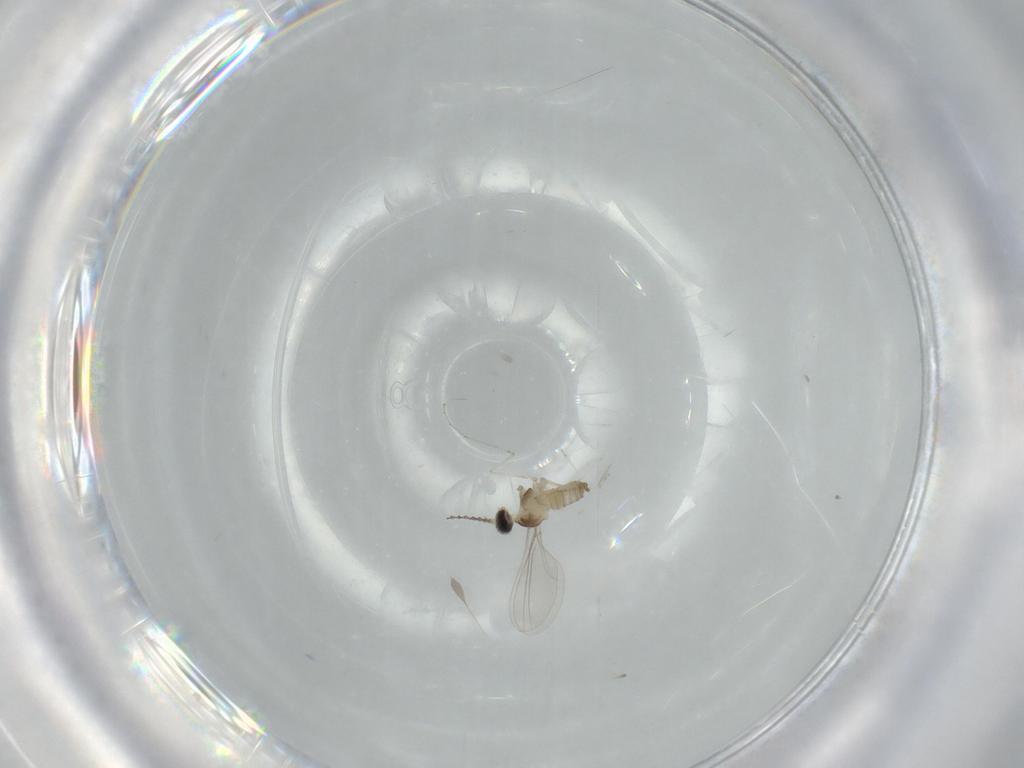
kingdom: Animalia
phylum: Arthropoda
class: Insecta
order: Diptera
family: Cecidomyiidae
